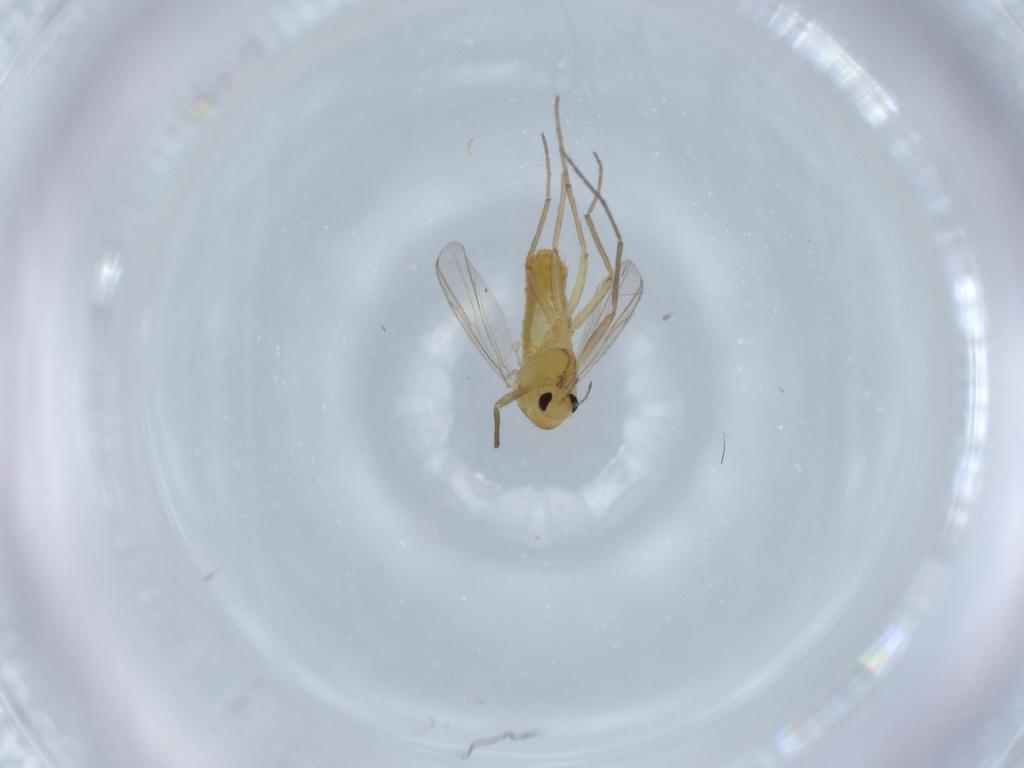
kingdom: Animalia
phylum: Arthropoda
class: Insecta
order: Diptera
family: Chironomidae
